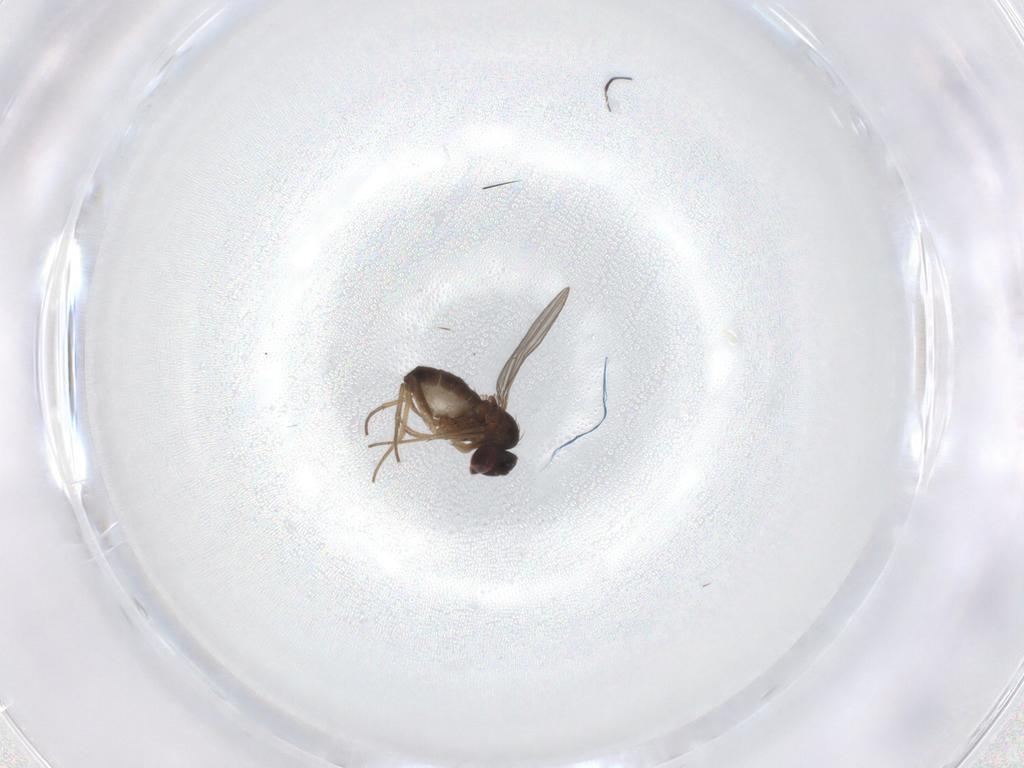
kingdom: Animalia
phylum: Arthropoda
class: Insecta
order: Diptera
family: Dolichopodidae
